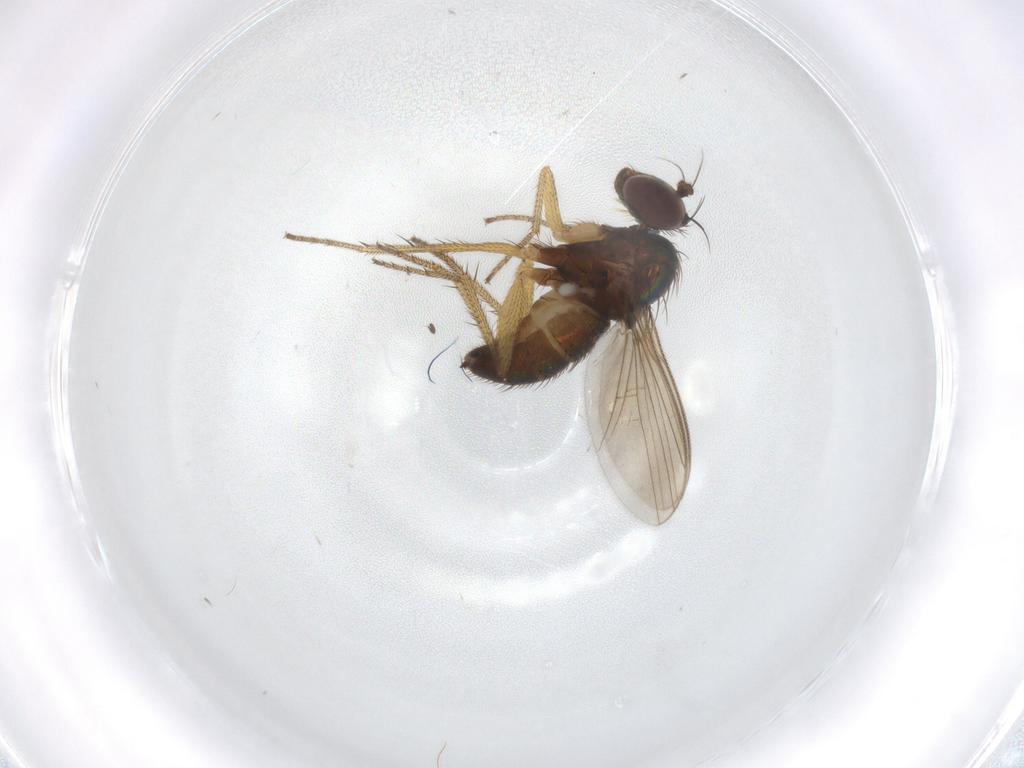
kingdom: Animalia
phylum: Arthropoda
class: Insecta
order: Diptera
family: Dolichopodidae
